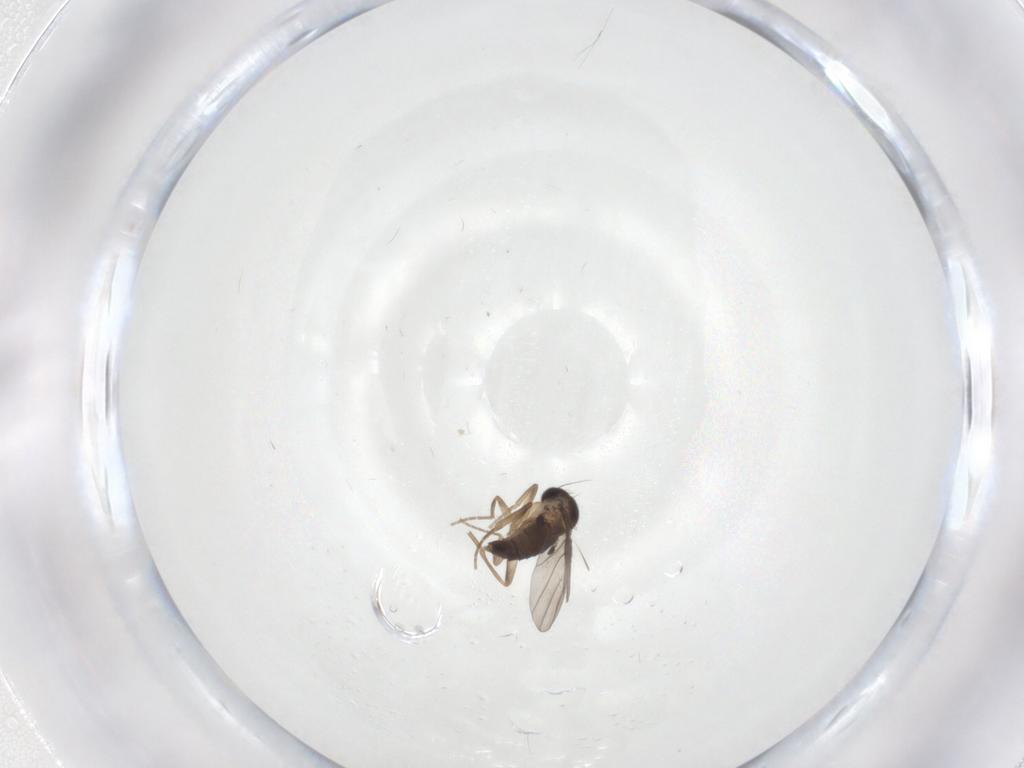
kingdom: Animalia
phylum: Arthropoda
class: Insecta
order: Diptera
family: Phoridae
